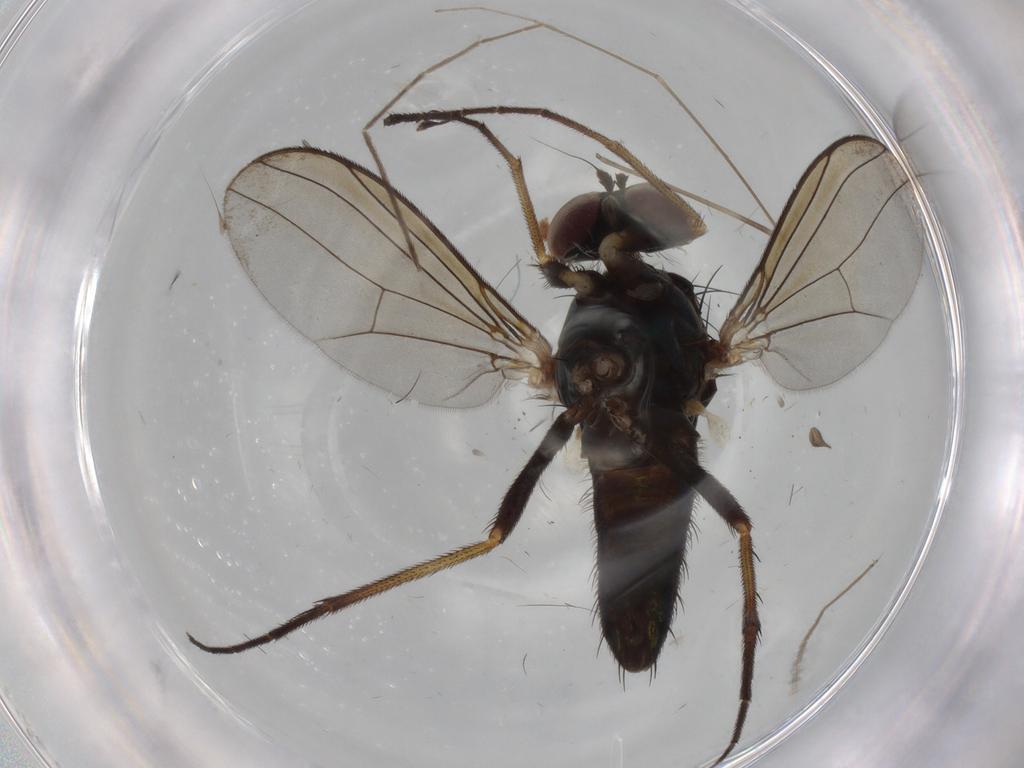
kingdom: Animalia
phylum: Arthropoda
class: Insecta
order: Diptera
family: Dolichopodidae
